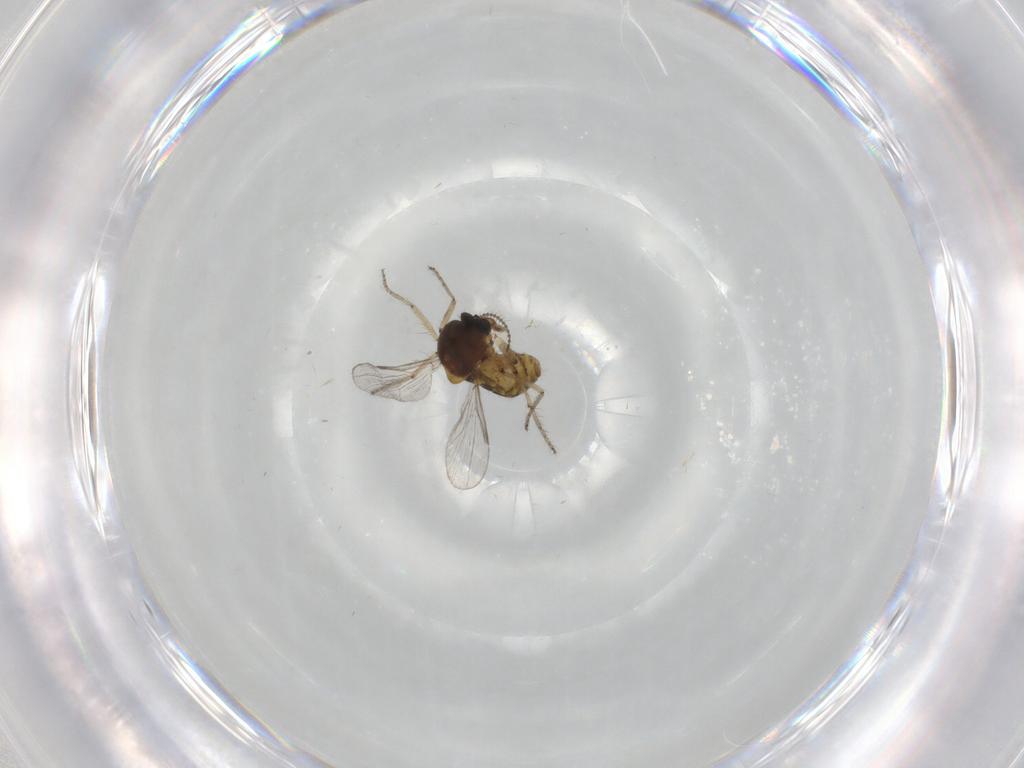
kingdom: Animalia
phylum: Arthropoda
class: Insecta
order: Diptera
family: Ceratopogonidae
